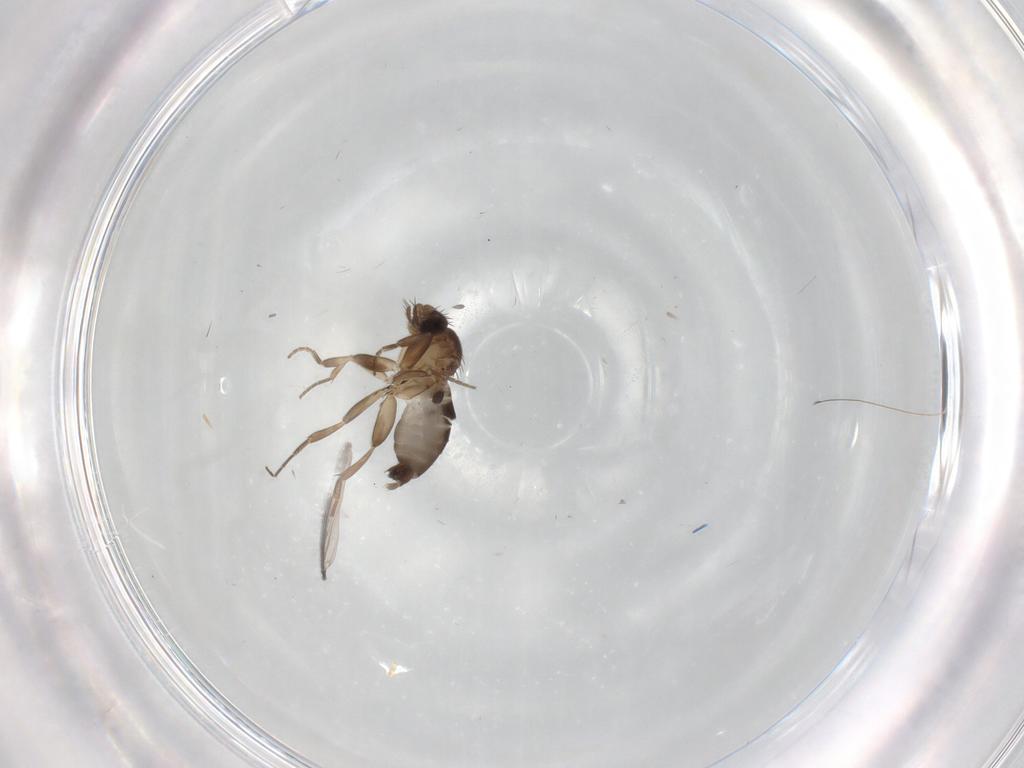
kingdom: Animalia
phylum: Arthropoda
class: Insecta
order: Diptera
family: Phoridae
